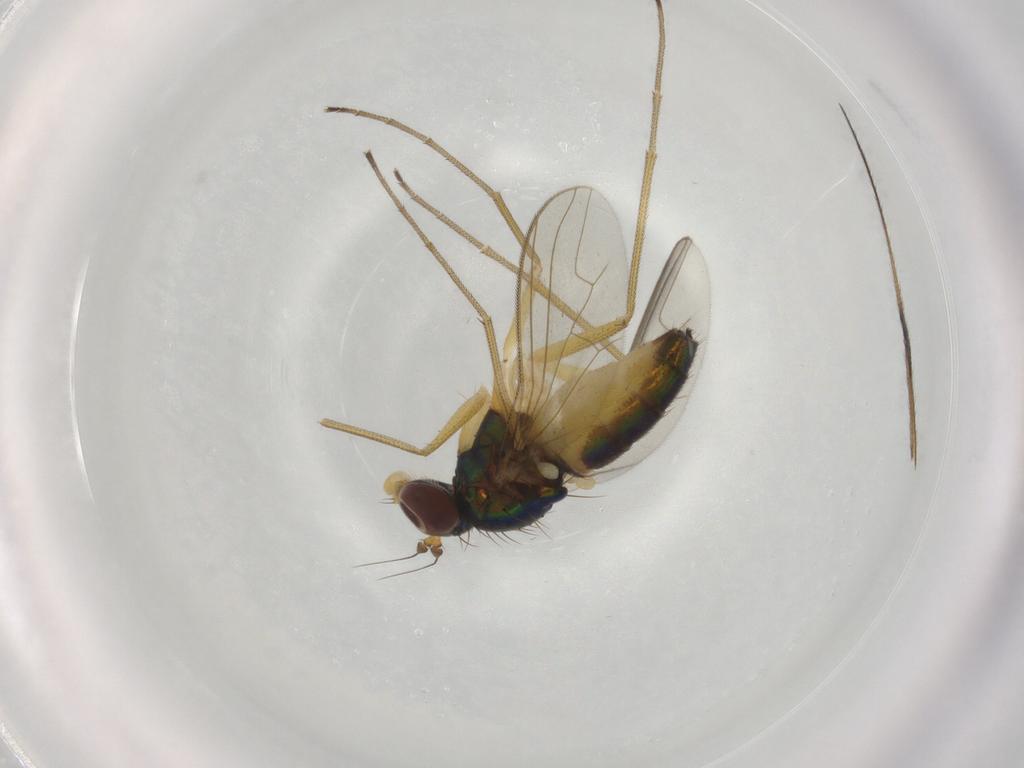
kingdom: Animalia
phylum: Arthropoda
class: Insecta
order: Diptera
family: Limoniidae
